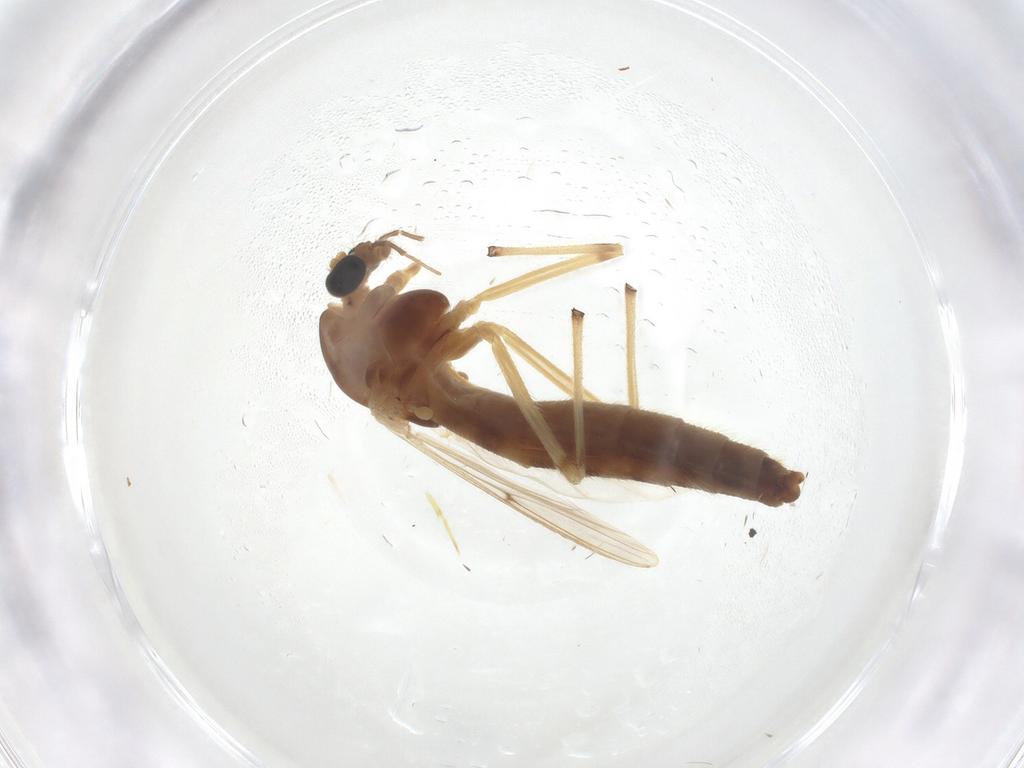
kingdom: Animalia
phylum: Arthropoda
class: Insecta
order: Diptera
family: Chironomidae
